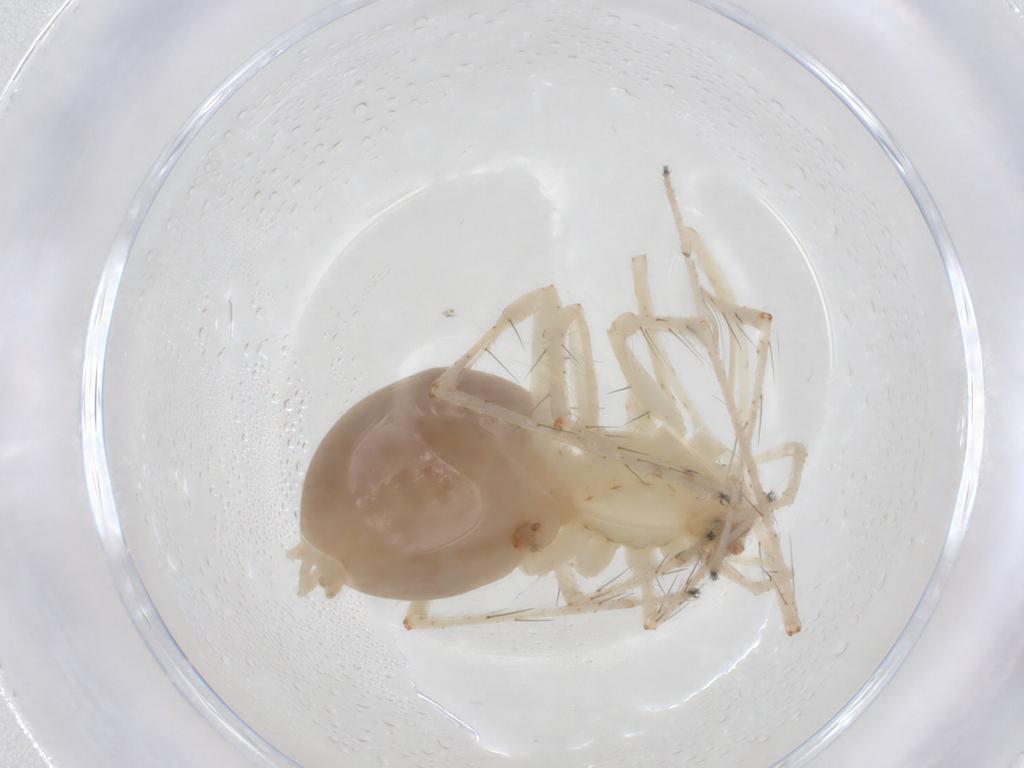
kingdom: Animalia
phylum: Arthropoda
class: Arachnida
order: Araneae
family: Anyphaenidae
